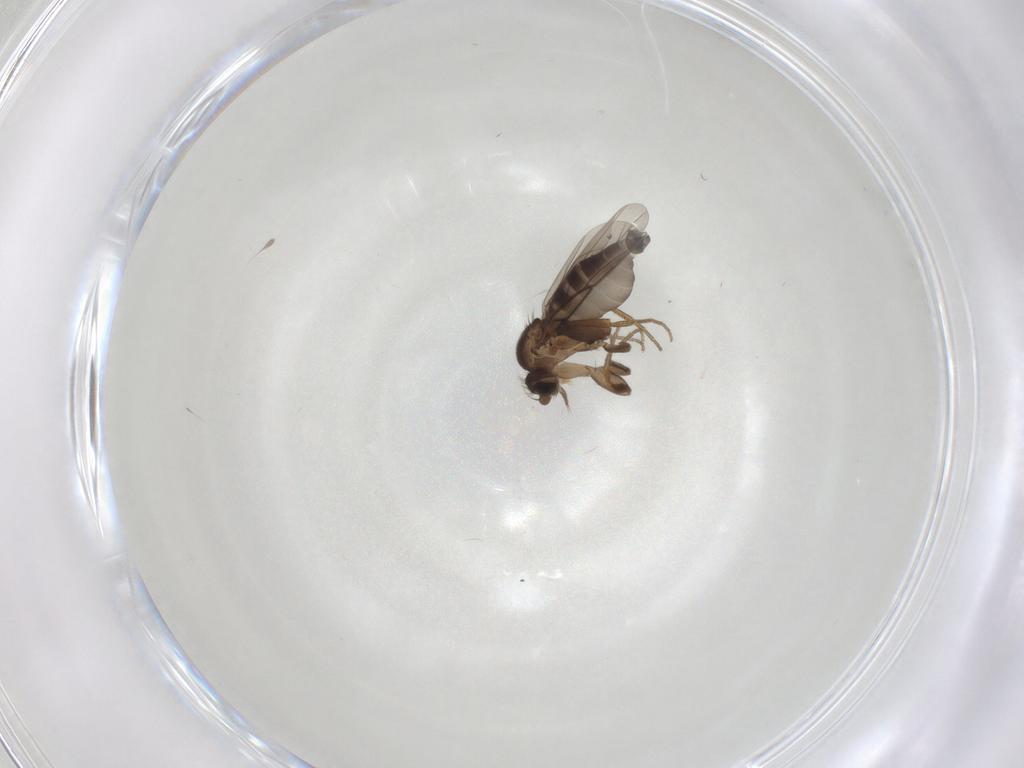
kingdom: Animalia
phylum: Arthropoda
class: Insecta
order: Diptera
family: Phoridae
